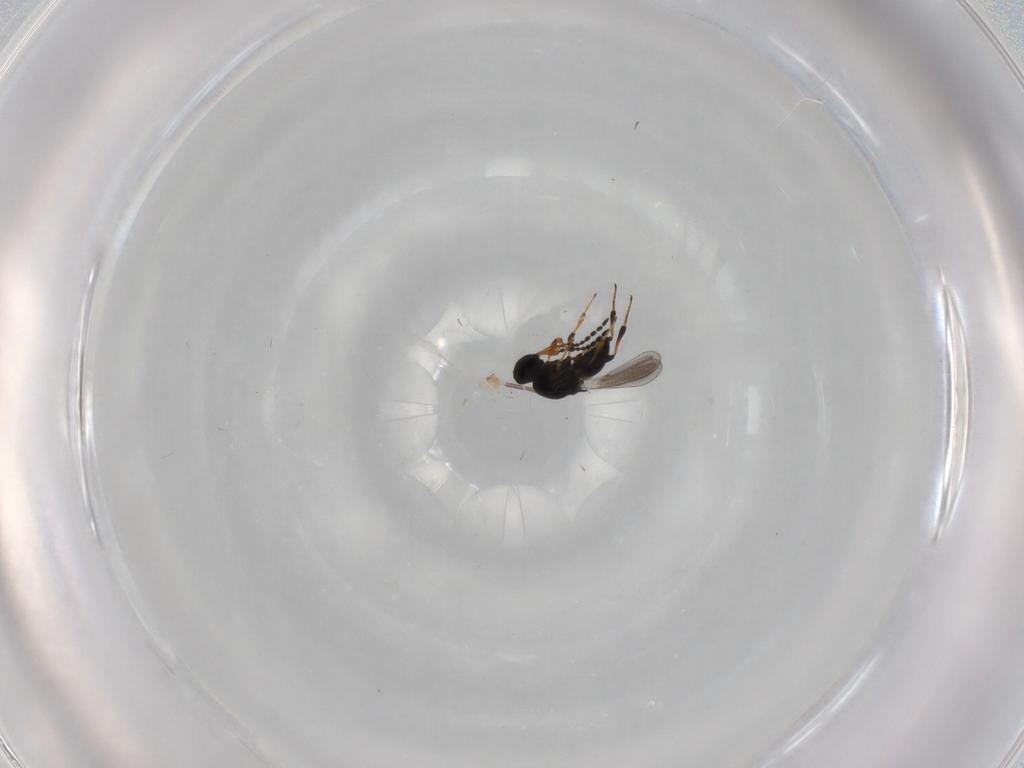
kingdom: Animalia
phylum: Arthropoda
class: Insecta
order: Hymenoptera
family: Platygastridae
